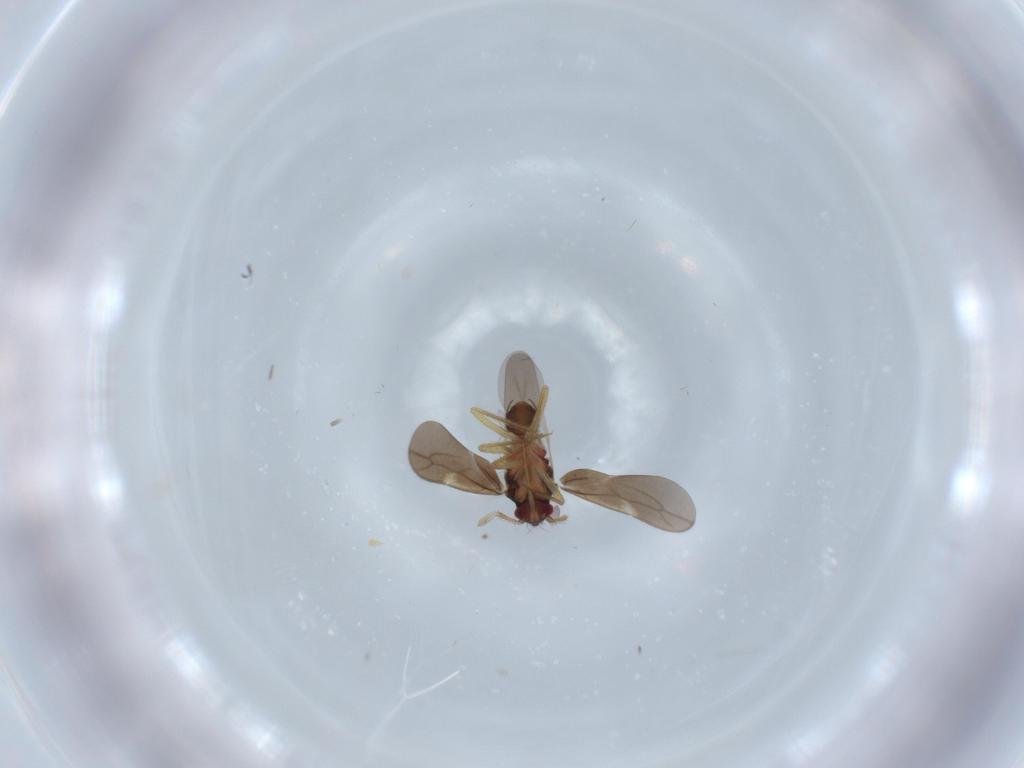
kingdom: Animalia
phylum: Arthropoda
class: Insecta
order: Hemiptera
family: Ceratocombidae
